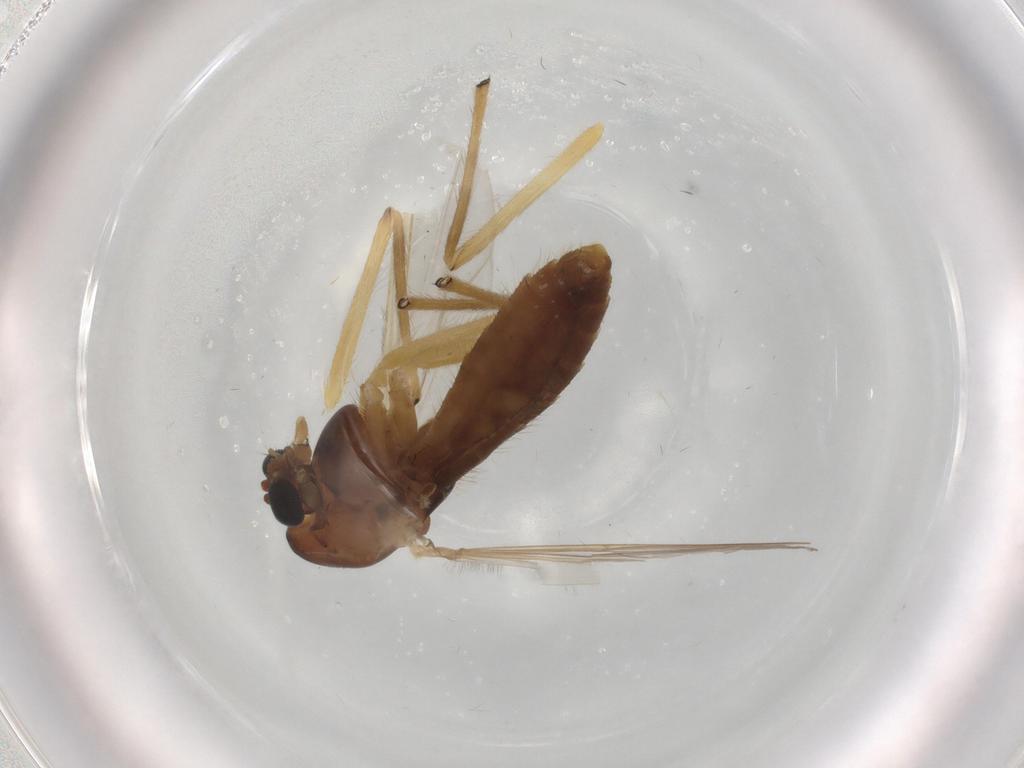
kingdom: Animalia
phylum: Arthropoda
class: Insecta
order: Diptera
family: Chironomidae
